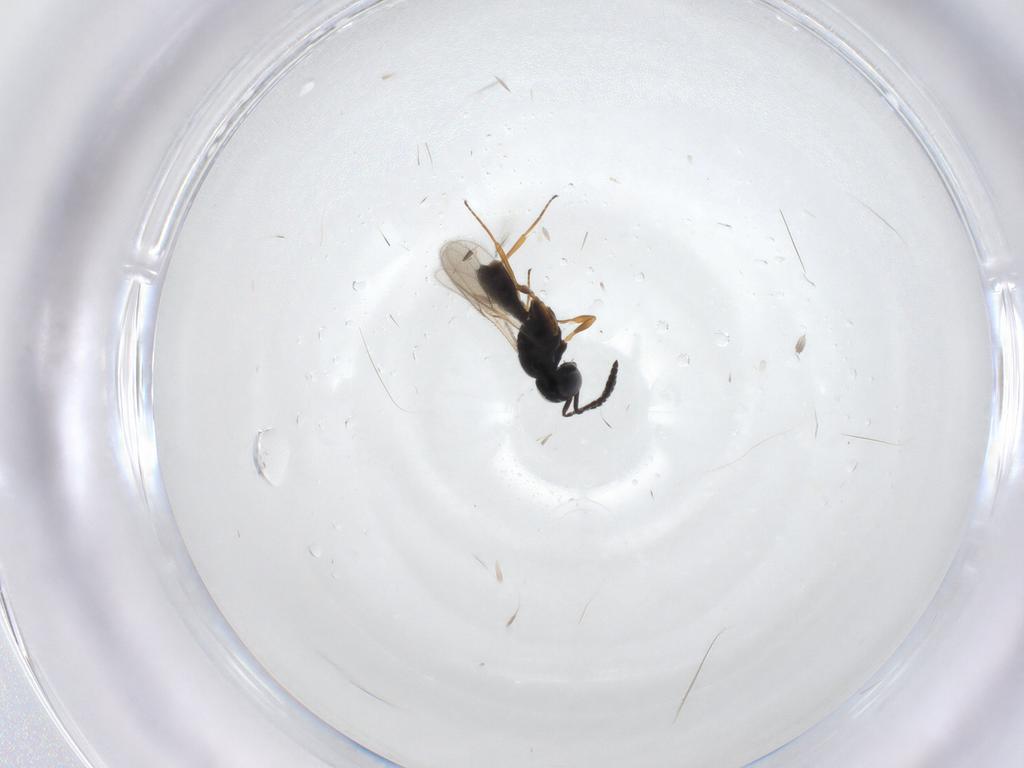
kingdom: Animalia
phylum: Arthropoda
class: Insecta
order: Hymenoptera
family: Scelionidae
